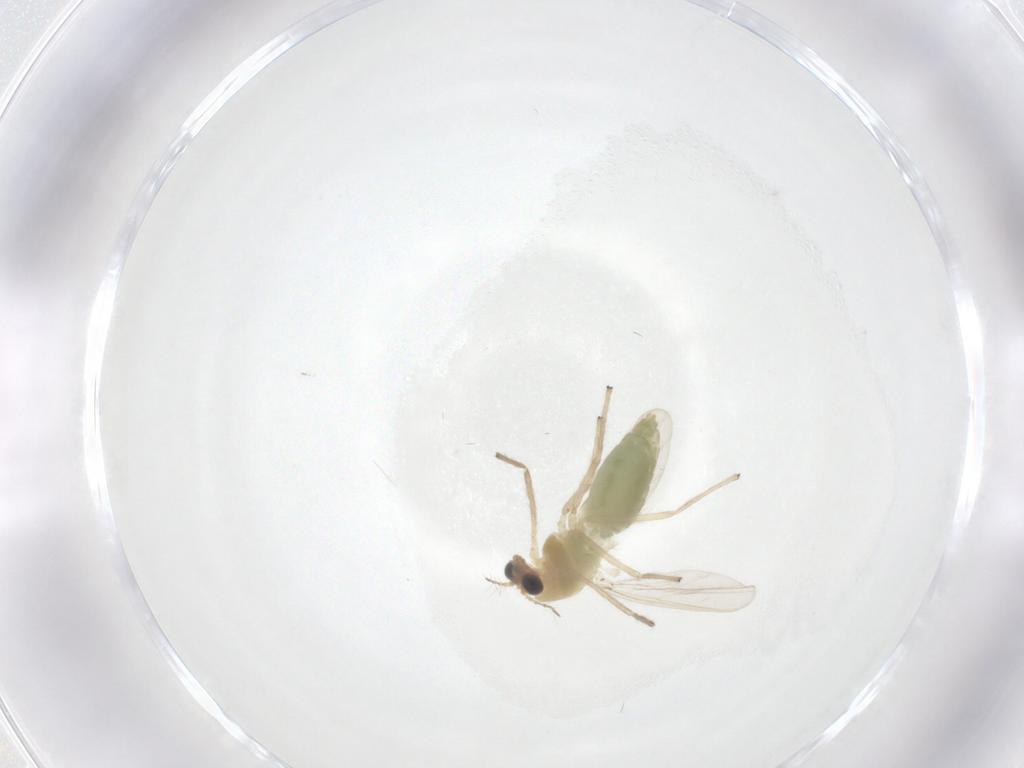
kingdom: Animalia
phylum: Arthropoda
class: Insecta
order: Diptera
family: Chironomidae
